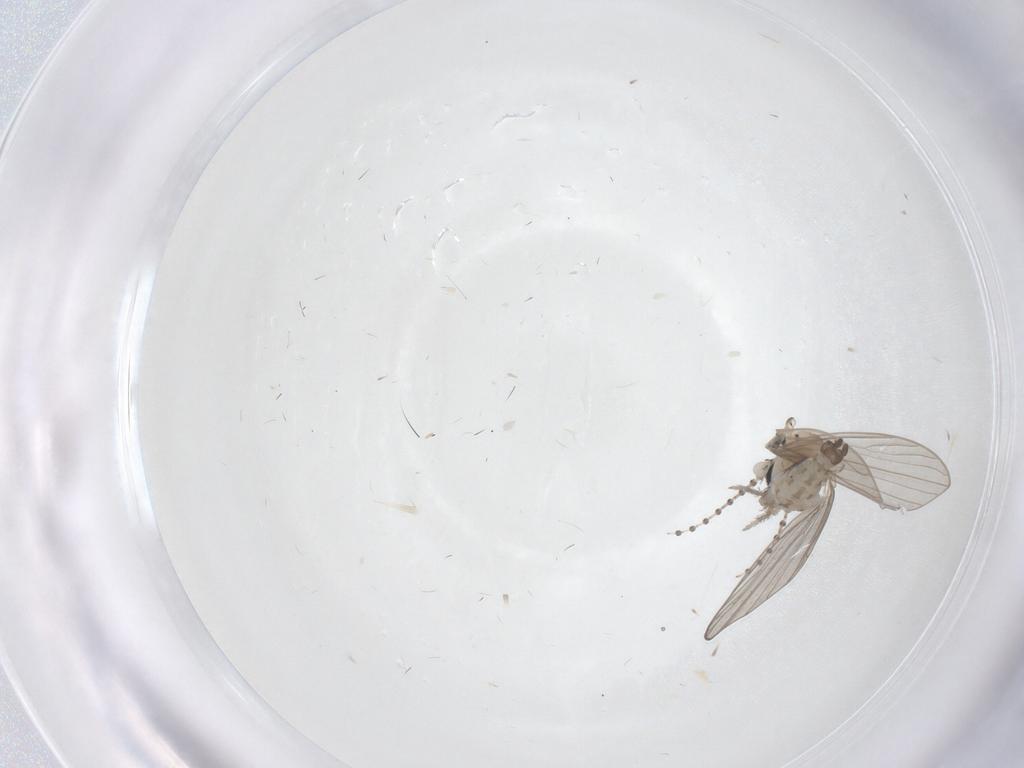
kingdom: Animalia
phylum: Arthropoda
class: Insecta
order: Diptera
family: Psychodidae
